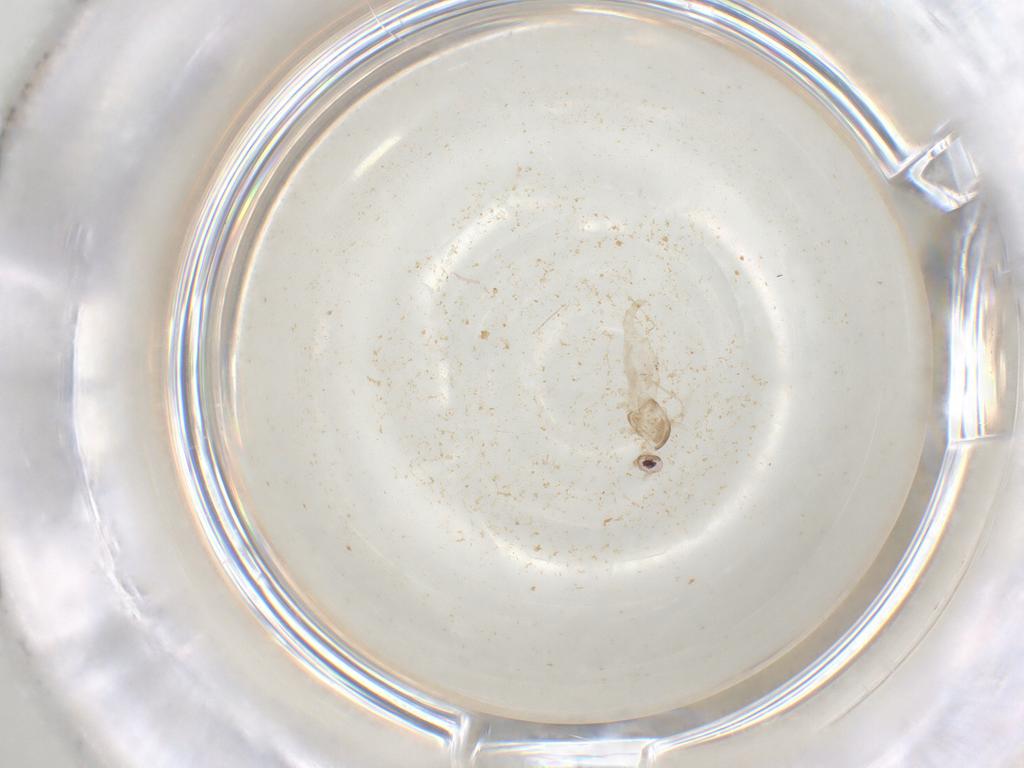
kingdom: Animalia
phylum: Arthropoda
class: Insecta
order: Diptera
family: Cecidomyiidae
